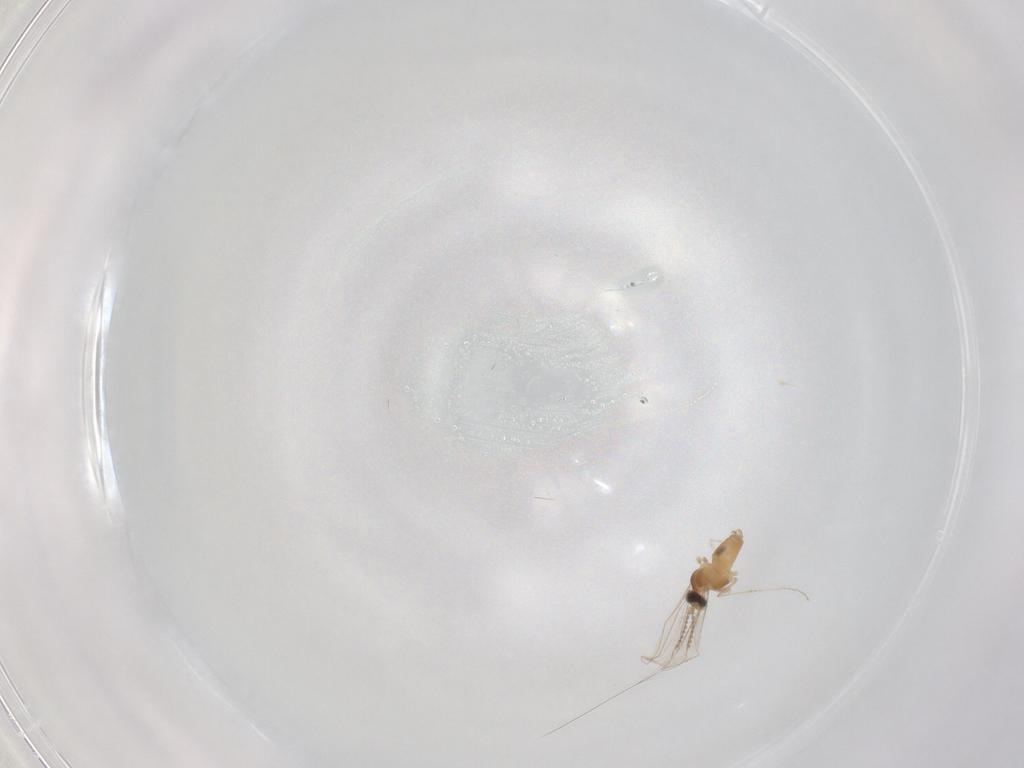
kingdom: Animalia
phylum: Arthropoda
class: Insecta
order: Diptera
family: Cecidomyiidae
